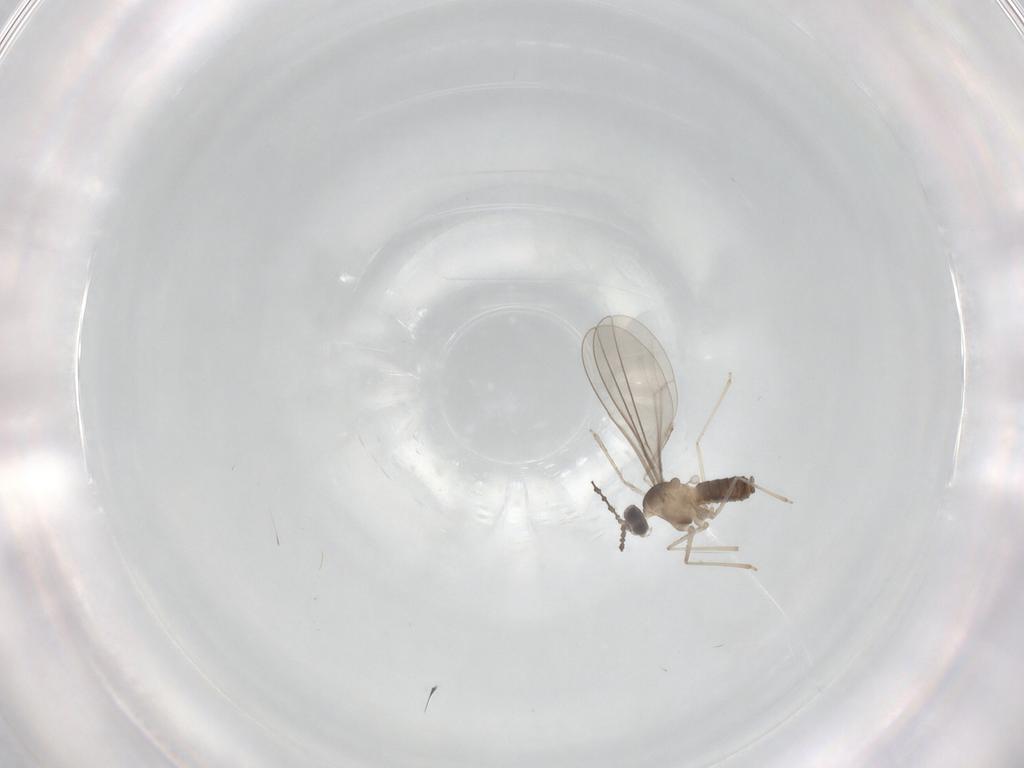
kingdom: Animalia
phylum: Arthropoda
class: Insecta
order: Diptera
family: Cecidomyiidae
